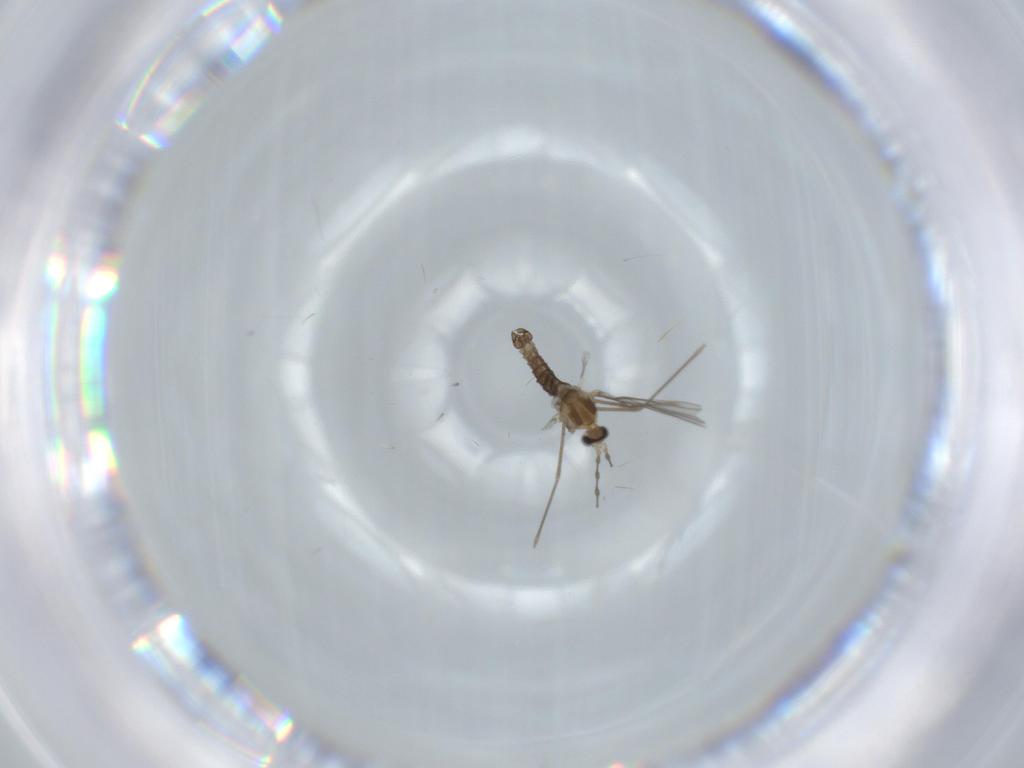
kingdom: Animalia
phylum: Arthropoda
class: Insecta
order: Diptera
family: Cecidomyiidae
